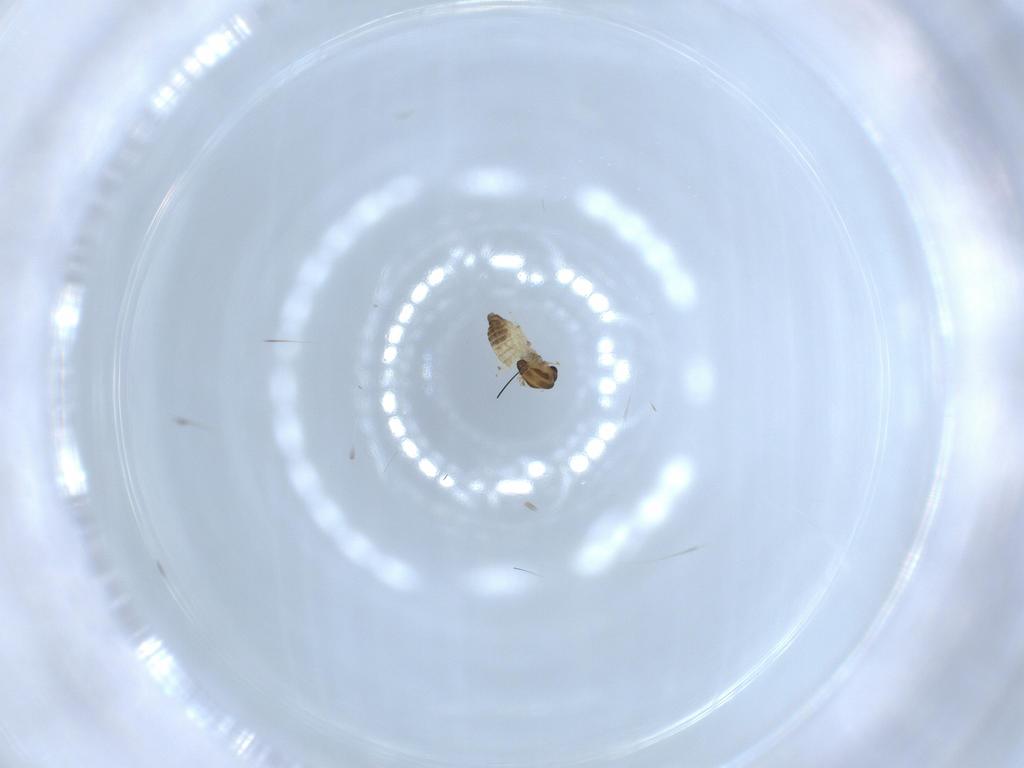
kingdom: Animalia
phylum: Arthropoda
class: Insecta
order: Diptera
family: Chironomidae
